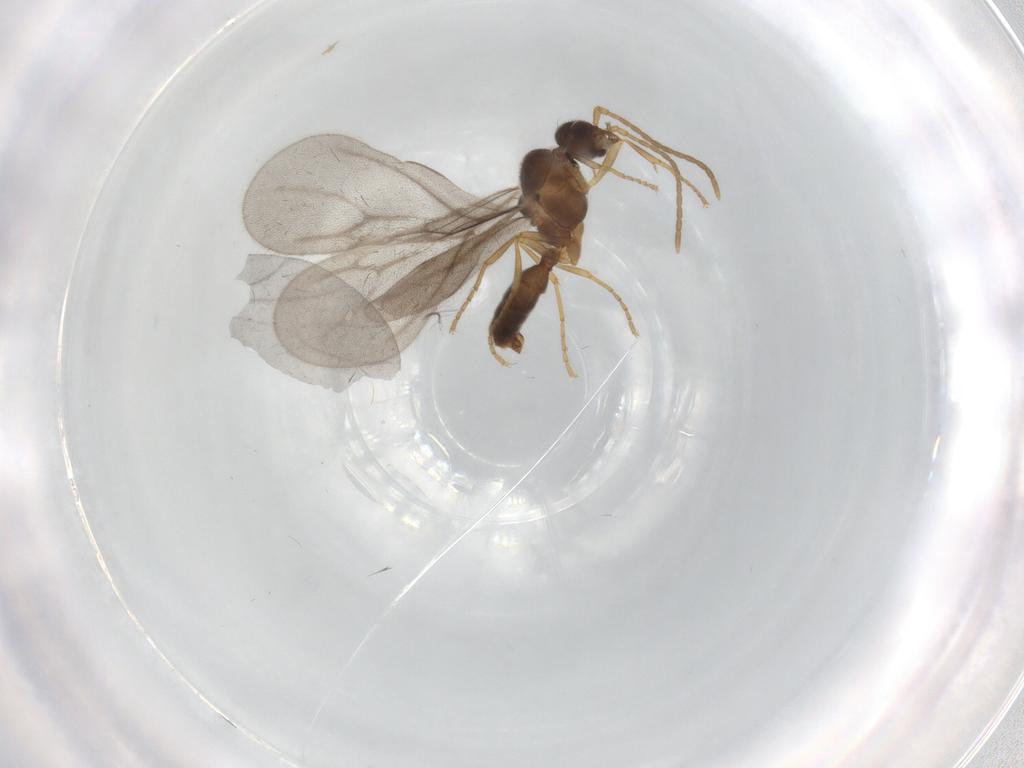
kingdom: Animalia
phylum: Arthropoda
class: Insecta
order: Hymenoptera
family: Formicidae
